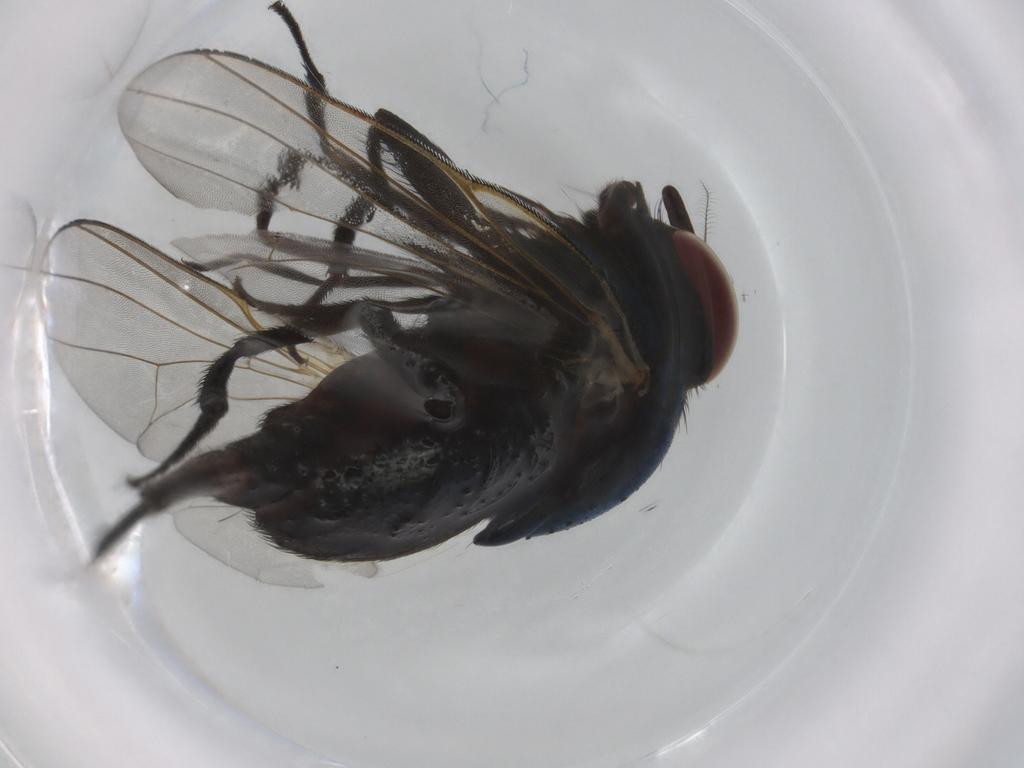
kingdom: Animalia
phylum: Arthropoda
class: Insecta
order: Diptera
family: Lonchaeidae
